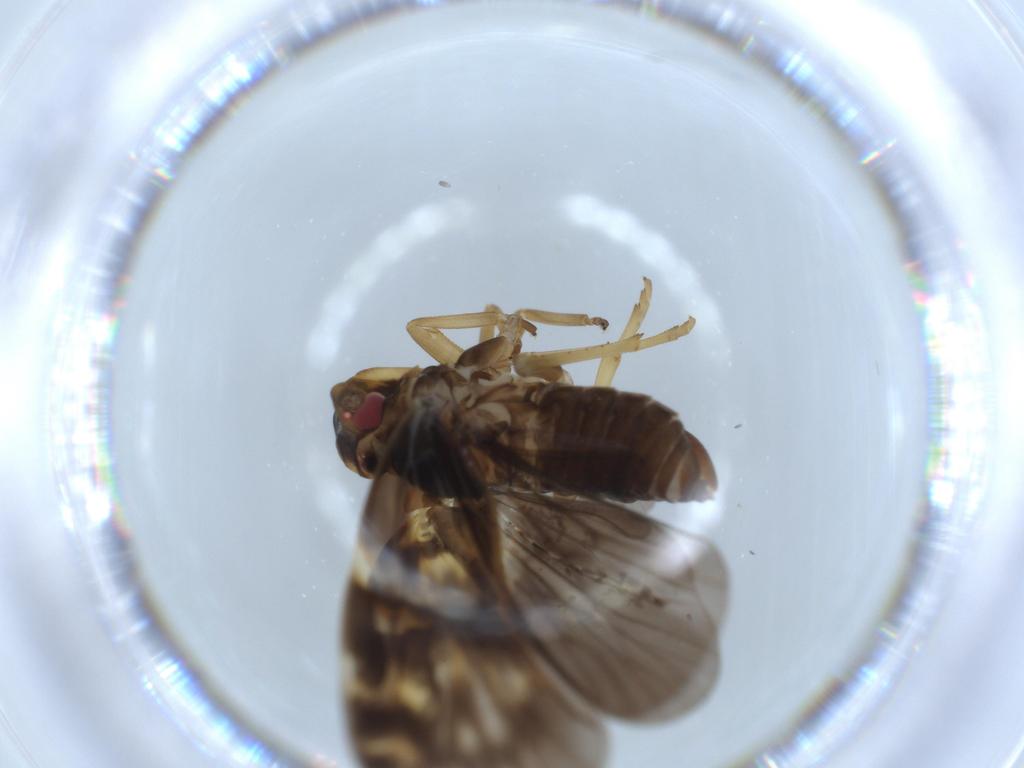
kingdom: Animalia
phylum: Arthropoda
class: Insecta
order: Hemiptera
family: Cixiidae
